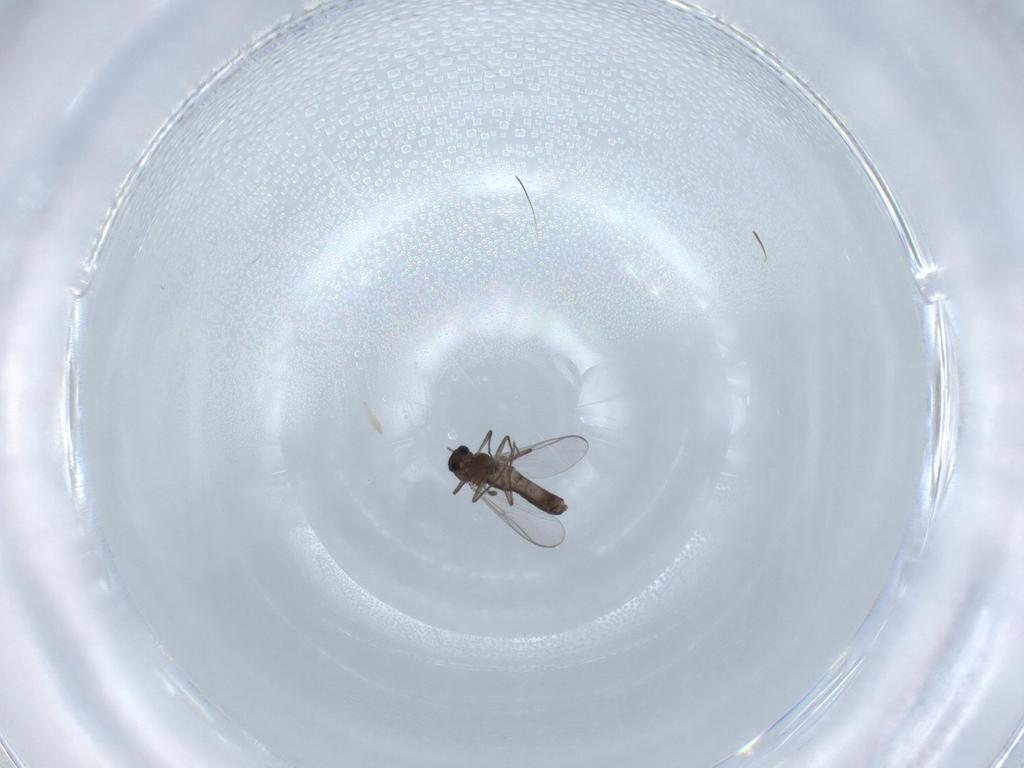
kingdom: Animalia
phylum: Arthropoda
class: Insecta
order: Diptera
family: Chironomidae
